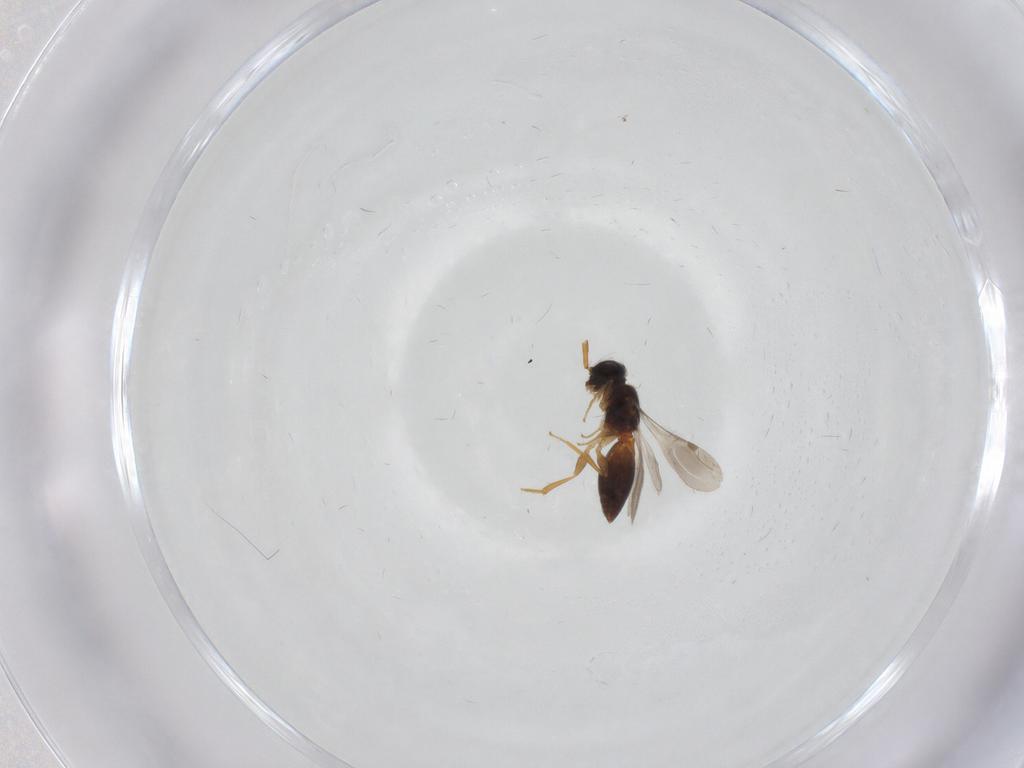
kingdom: Animalia
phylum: Arthropoda
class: Insecta
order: Hymenoptera
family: Megaspilidae
